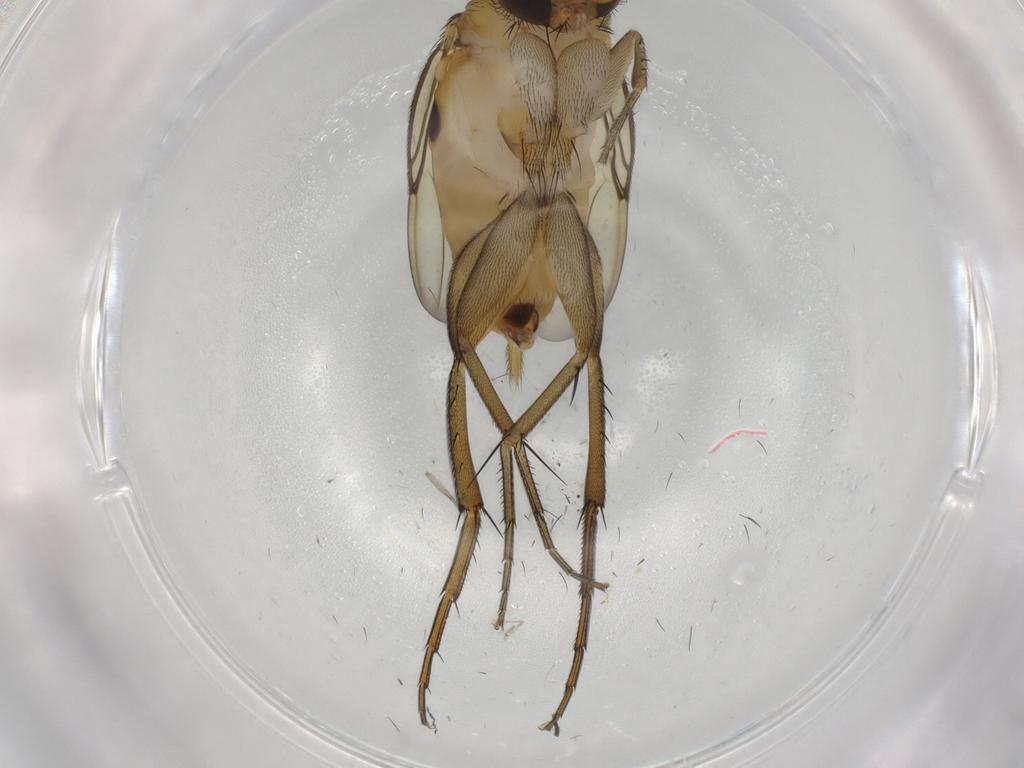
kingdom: Animalia
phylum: Arthropoda
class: Insecta
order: Diptera
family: Phoridae
